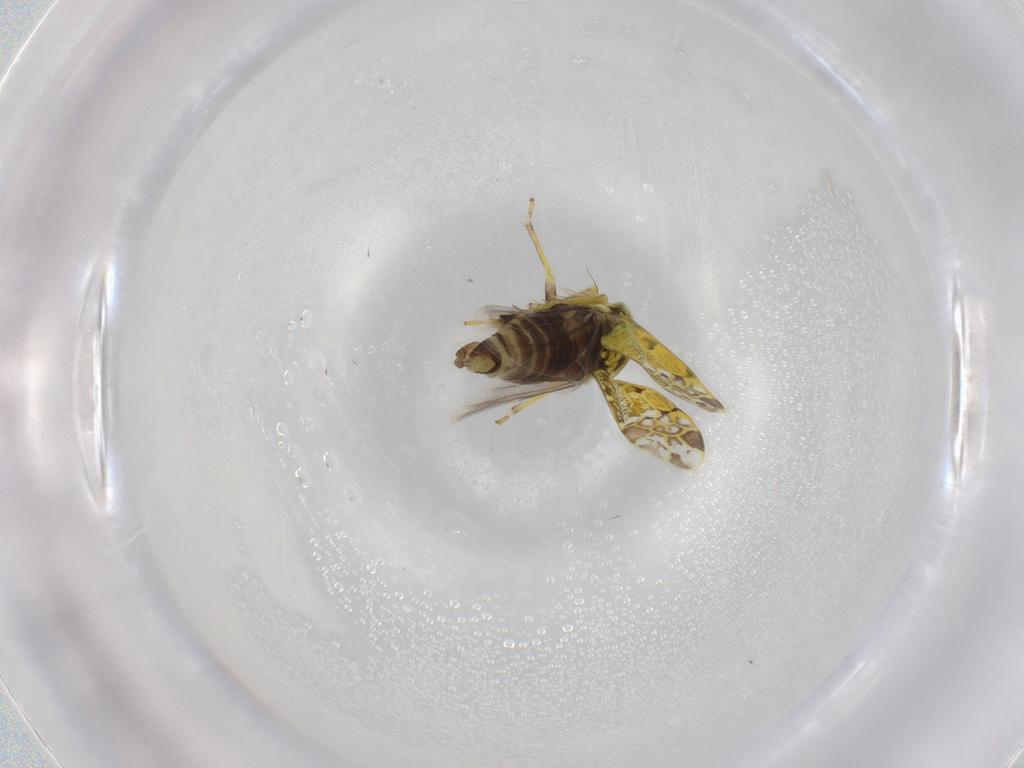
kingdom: Animalia
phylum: Arthropoda
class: Insecta
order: Hemiptera
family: Cicadellidae
